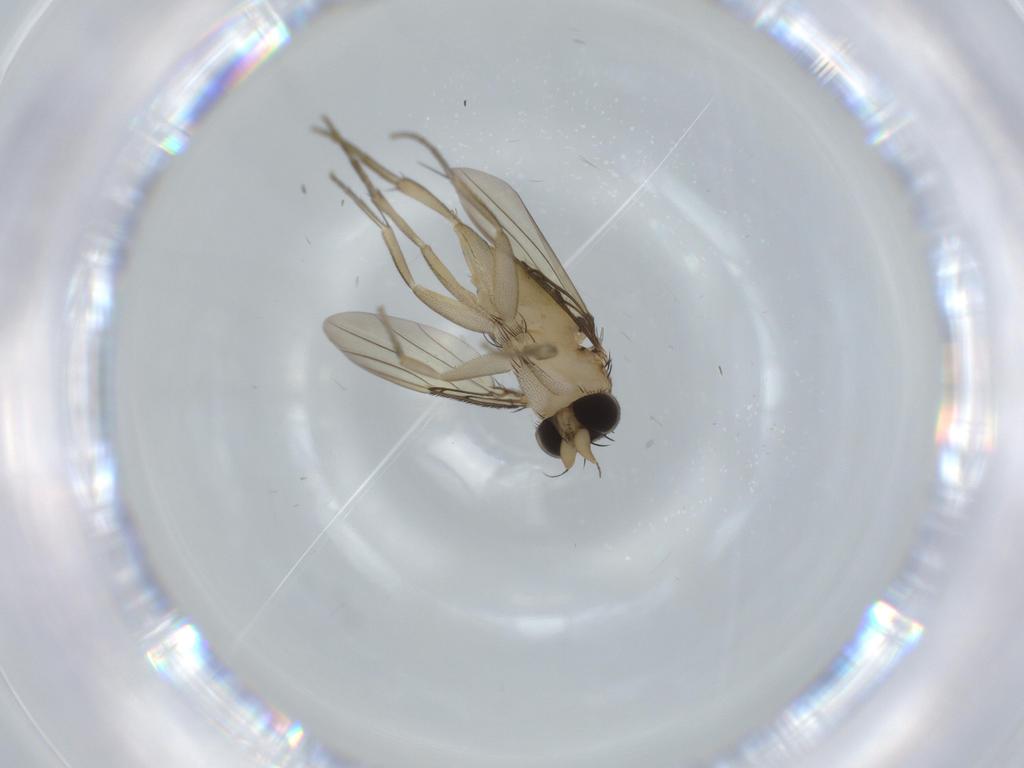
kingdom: Animalia
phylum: Arthropoda
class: Insecta
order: Diptera
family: Phoridae
